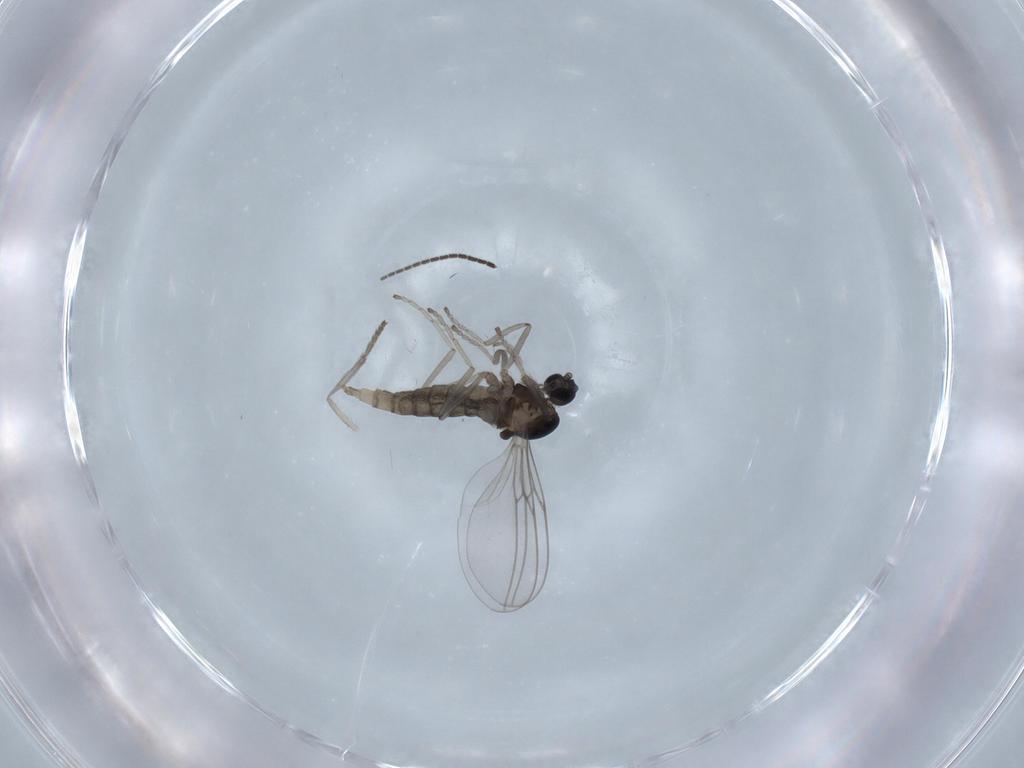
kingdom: Animalia
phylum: Arthropoda
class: Insecta
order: Diptera
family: Cecidomyiidae
